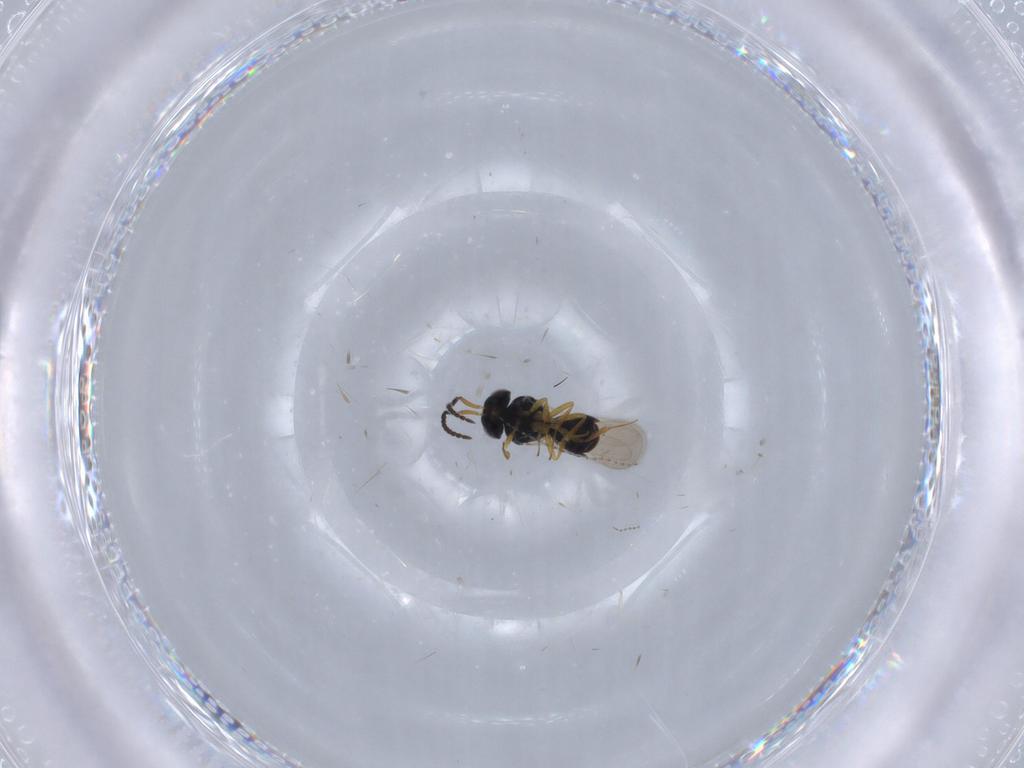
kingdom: Animalia
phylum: Arthropoda
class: Insecta
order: Hymenoptera
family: Scelionidae
